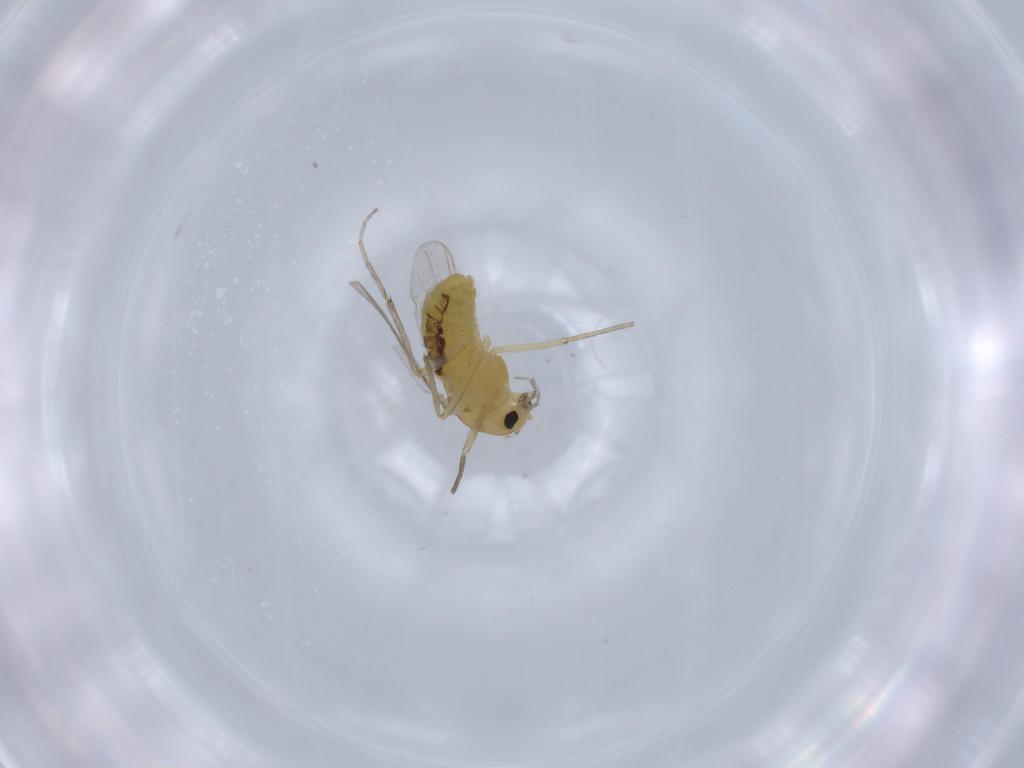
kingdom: Animalia
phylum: Arthropoda
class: Insecta
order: Diptera
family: Chironomidae
